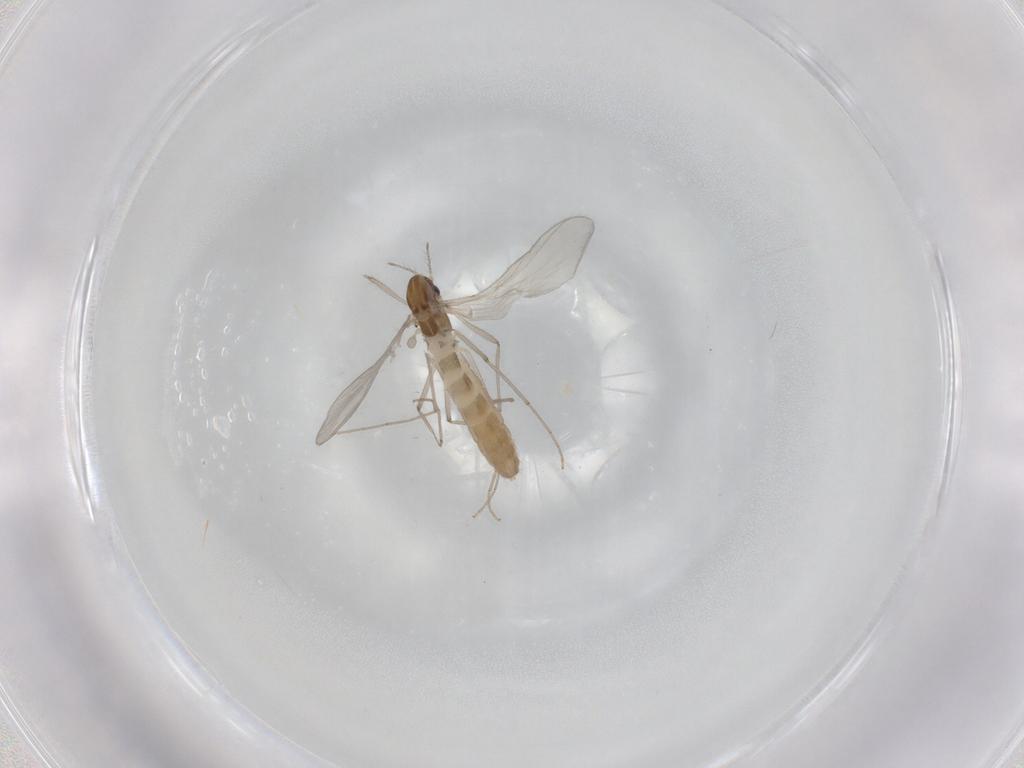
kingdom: Animalia
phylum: Arthropoda
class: Insecta
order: Diptera
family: Chironomidae
